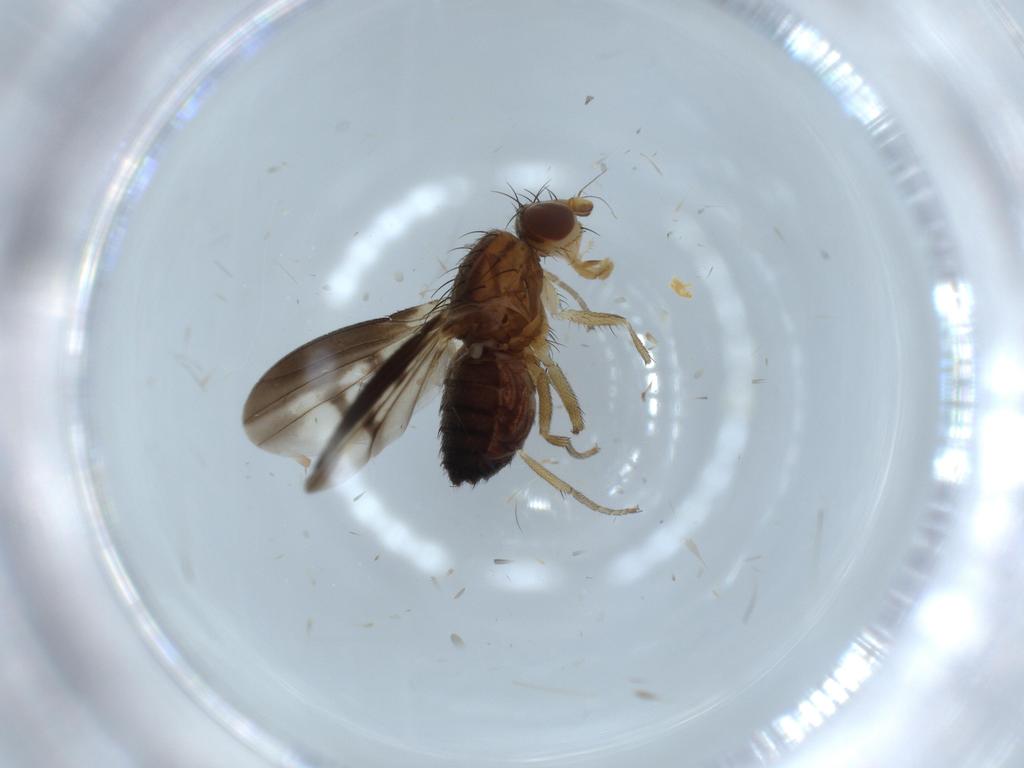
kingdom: Animalia
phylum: Arthropoda
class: Insecta
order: Diptera
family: Heleomyzidae
